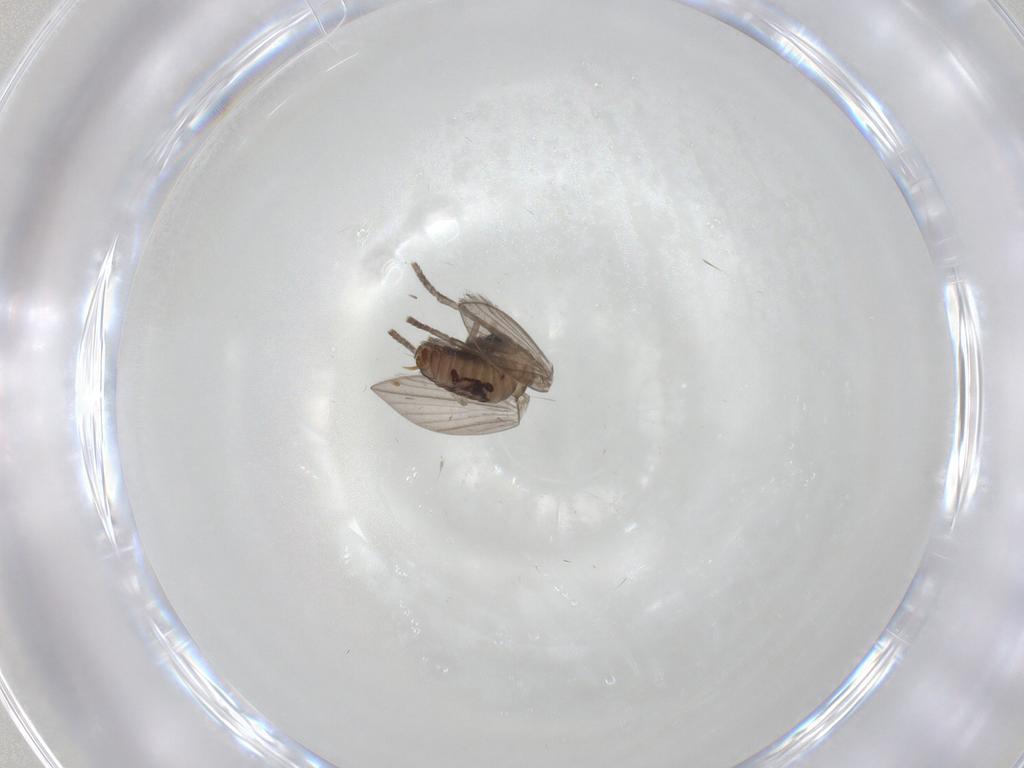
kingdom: Animalia
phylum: Arthropoda
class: Insecta
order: Diptera
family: Psychodidae
